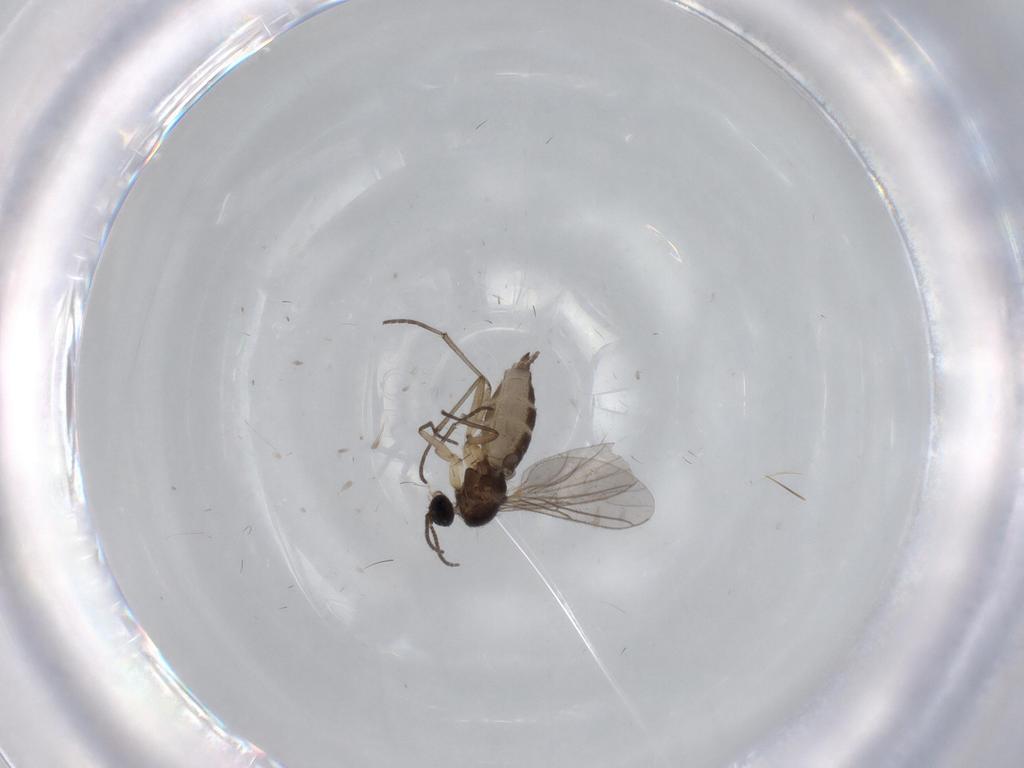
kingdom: Animalia
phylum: Arthropoda
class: Insecta
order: Diptera
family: Sciaridae
